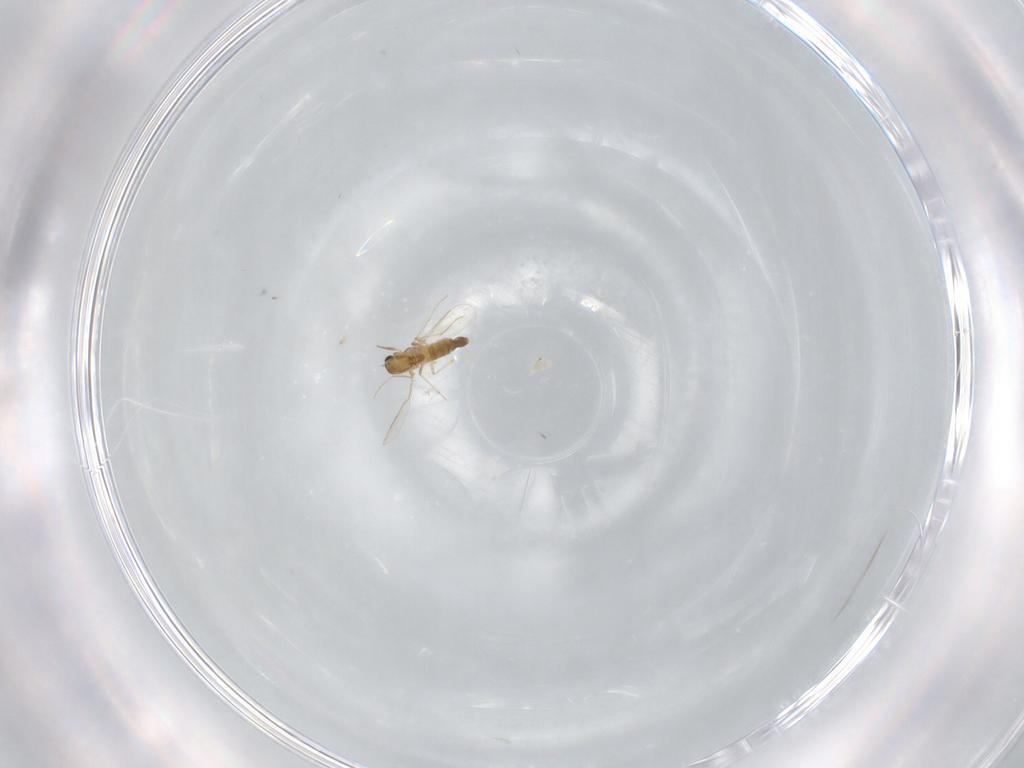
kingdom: Animalia
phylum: Arthropoda
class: Insecta
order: Diptera
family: Chironomidae
